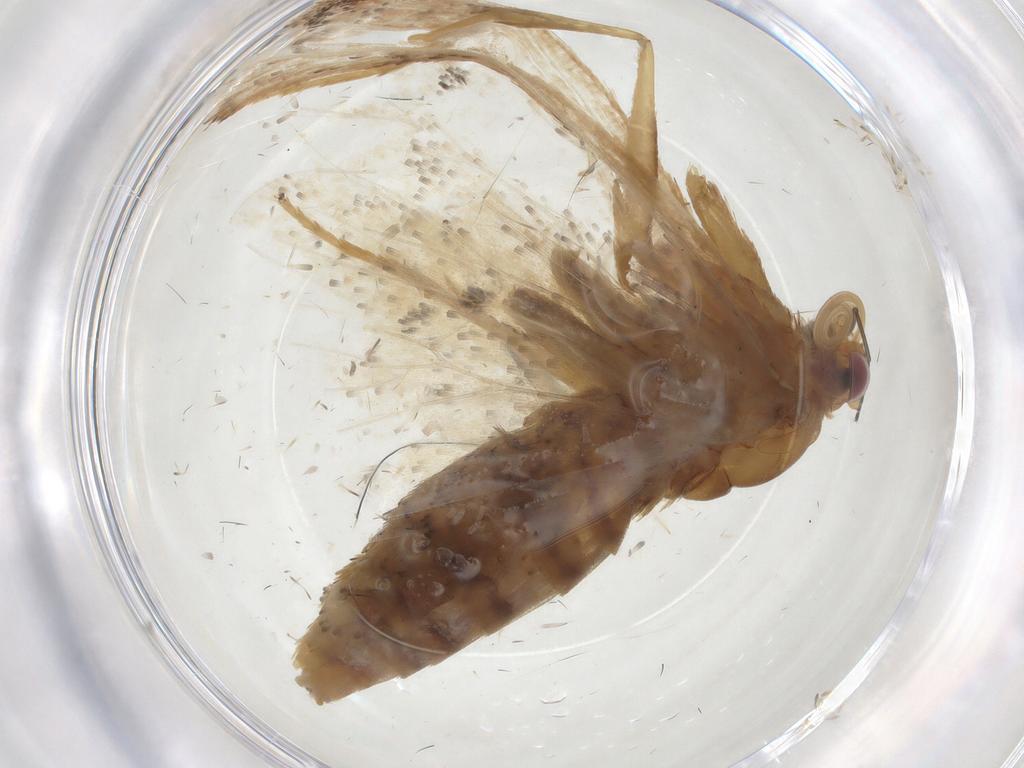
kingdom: Animalia
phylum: Arthropoda
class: Insecta
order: Lepidoptera
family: Geometridae
